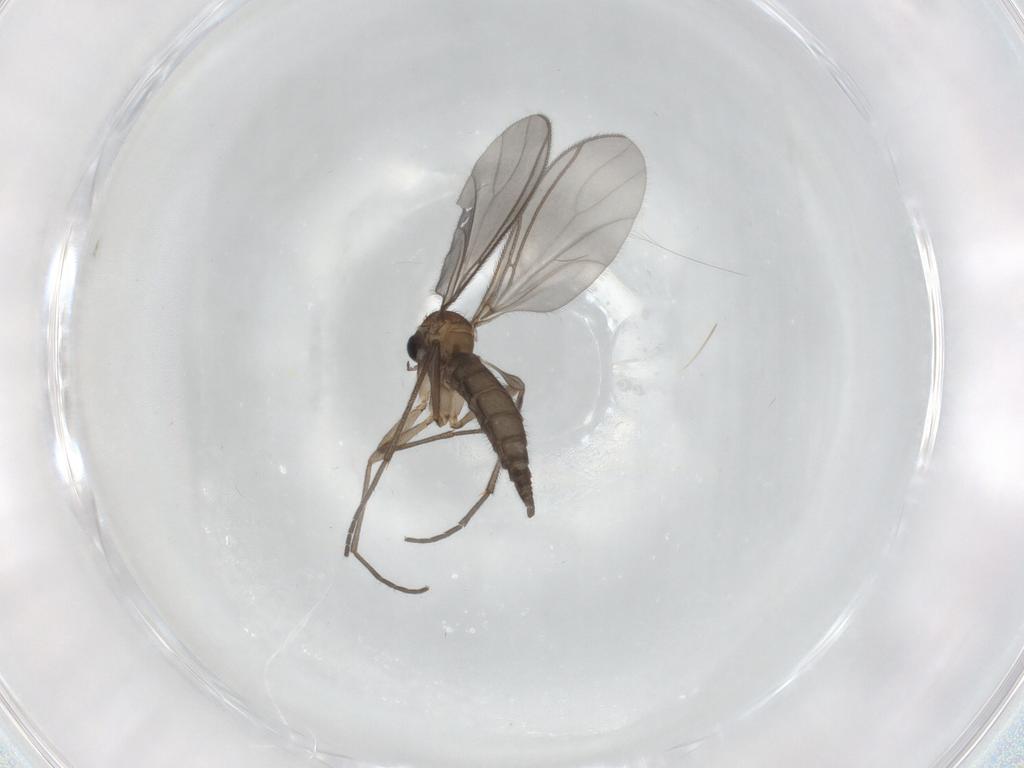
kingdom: Animalia
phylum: Arthropoda
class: Insecta
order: Diptera
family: Sciaridae
